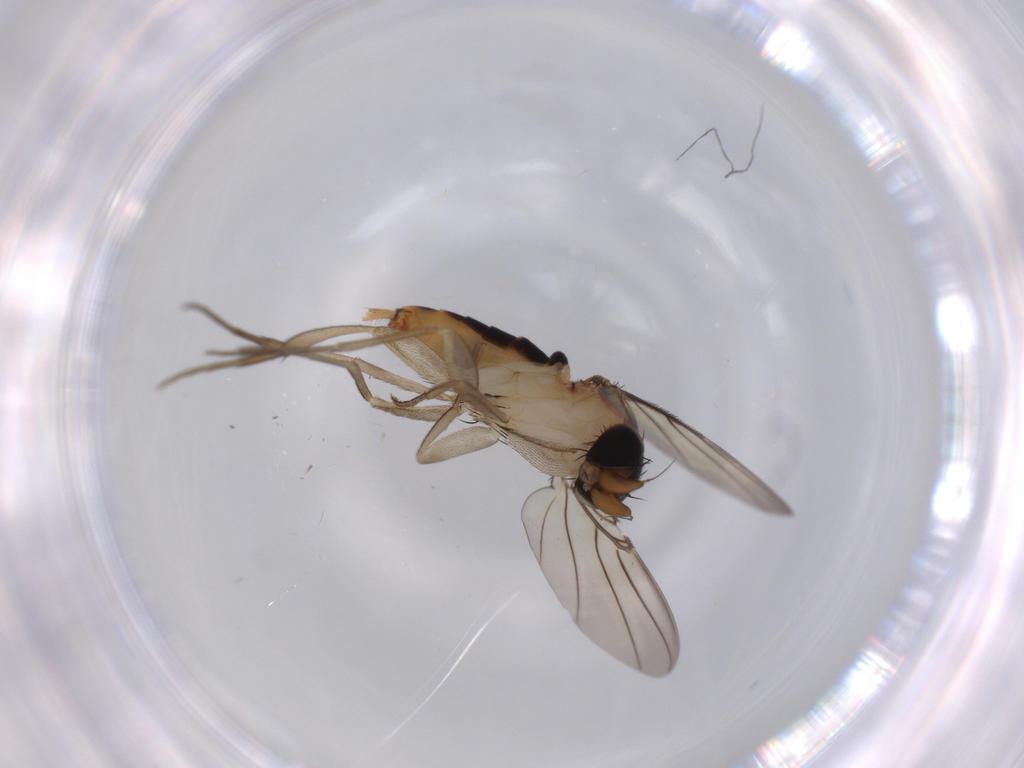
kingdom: Animalia
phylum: Arthropoda
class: Insecta
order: Diptera
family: Phoridae
